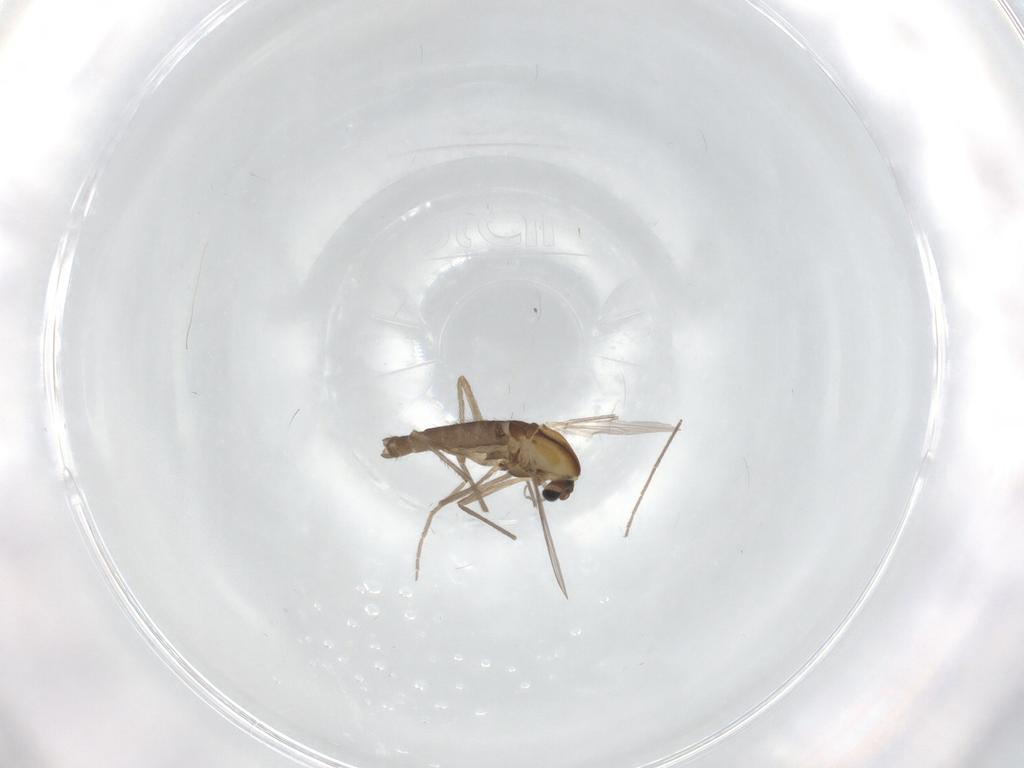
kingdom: Animalia
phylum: Arthropoda
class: Insecta
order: Diptera
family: Chironomidae
